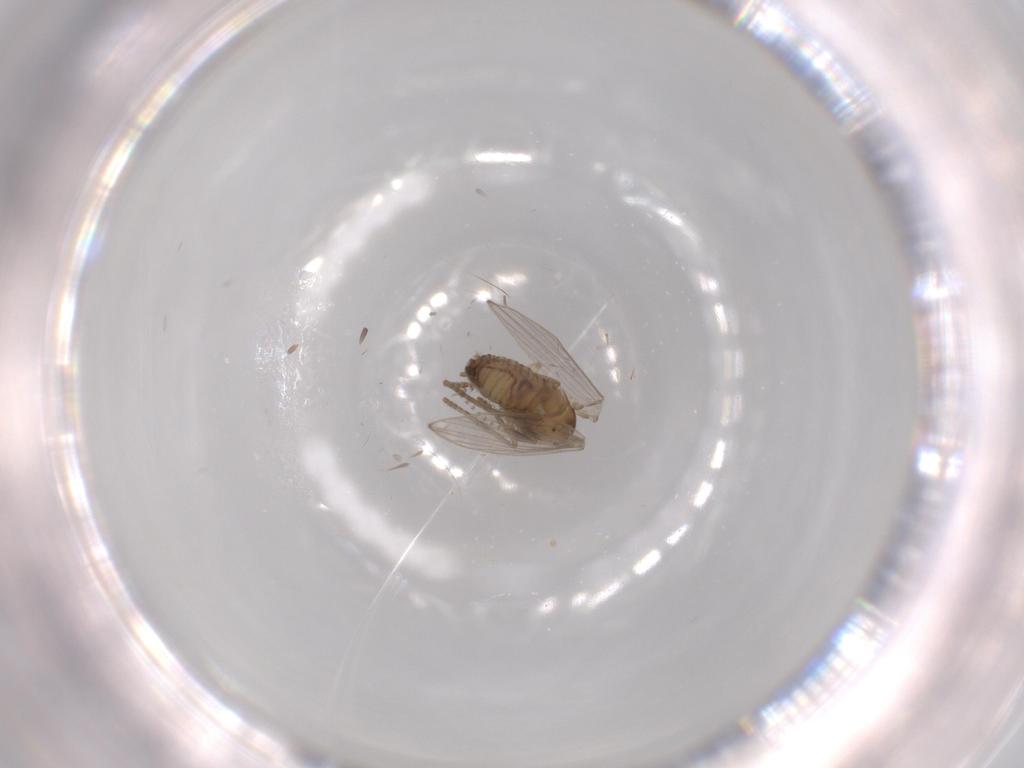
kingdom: Animalia
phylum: Arthropoda
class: Insecta
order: Diptera
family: Psychodidae
